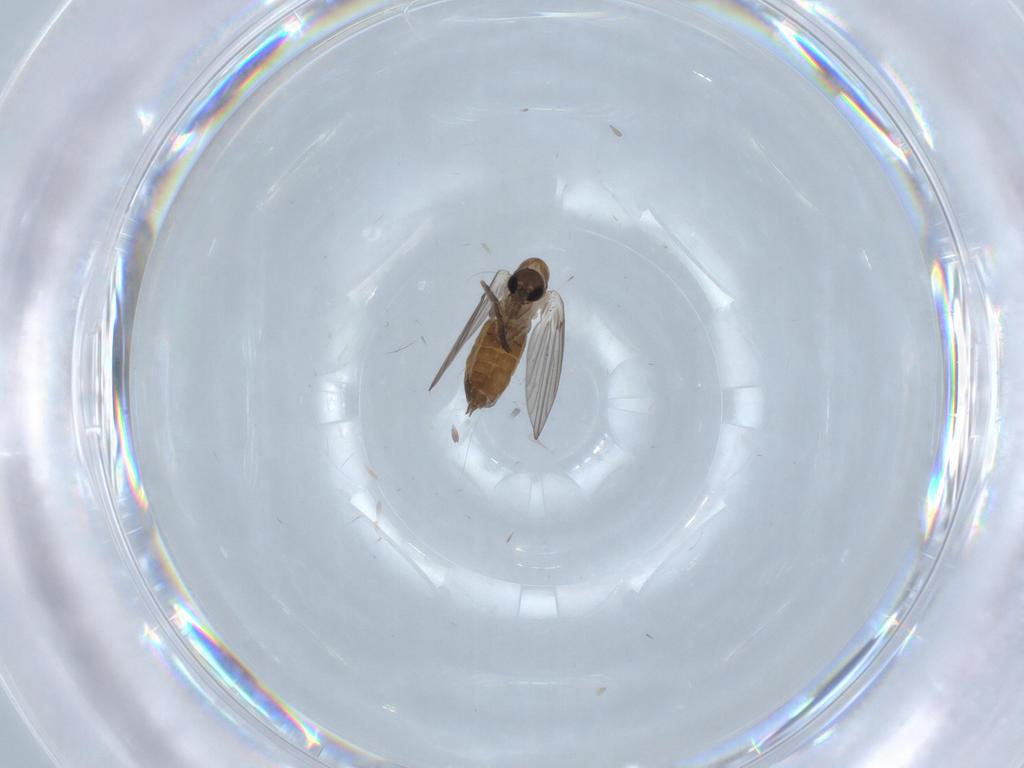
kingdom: Animalia
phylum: Arthropoda
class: Insecta
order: Diptera
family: Psychodidae
